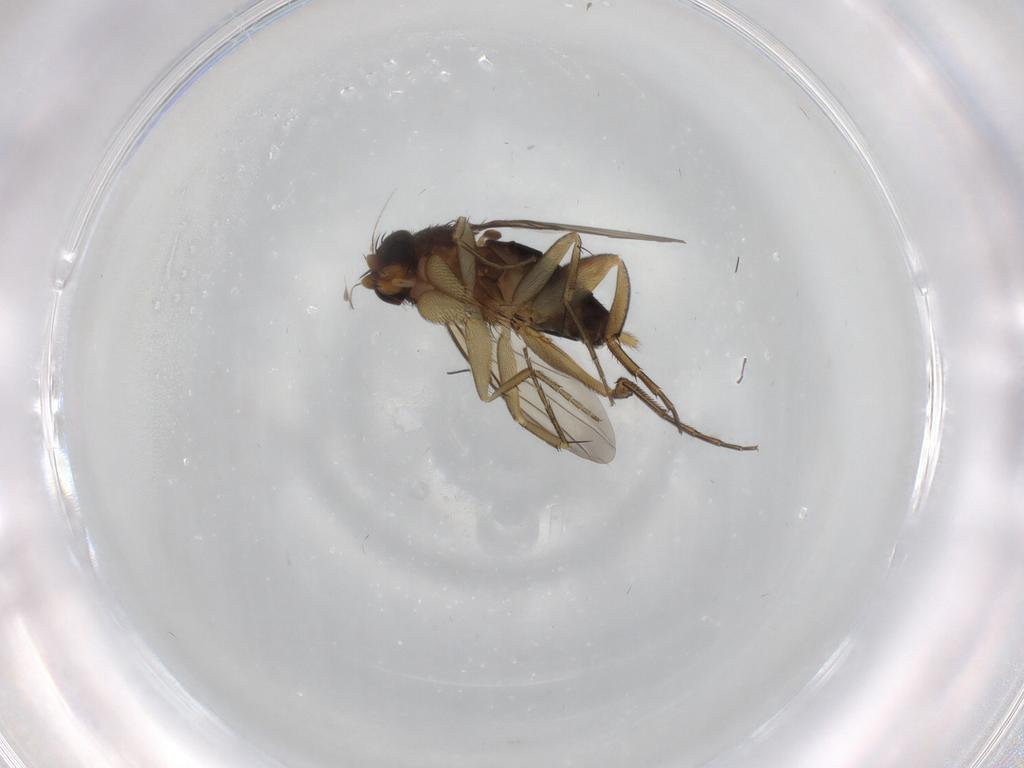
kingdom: Animalia
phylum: Arthropoda
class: Insecta
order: Diptera
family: Phoridae
